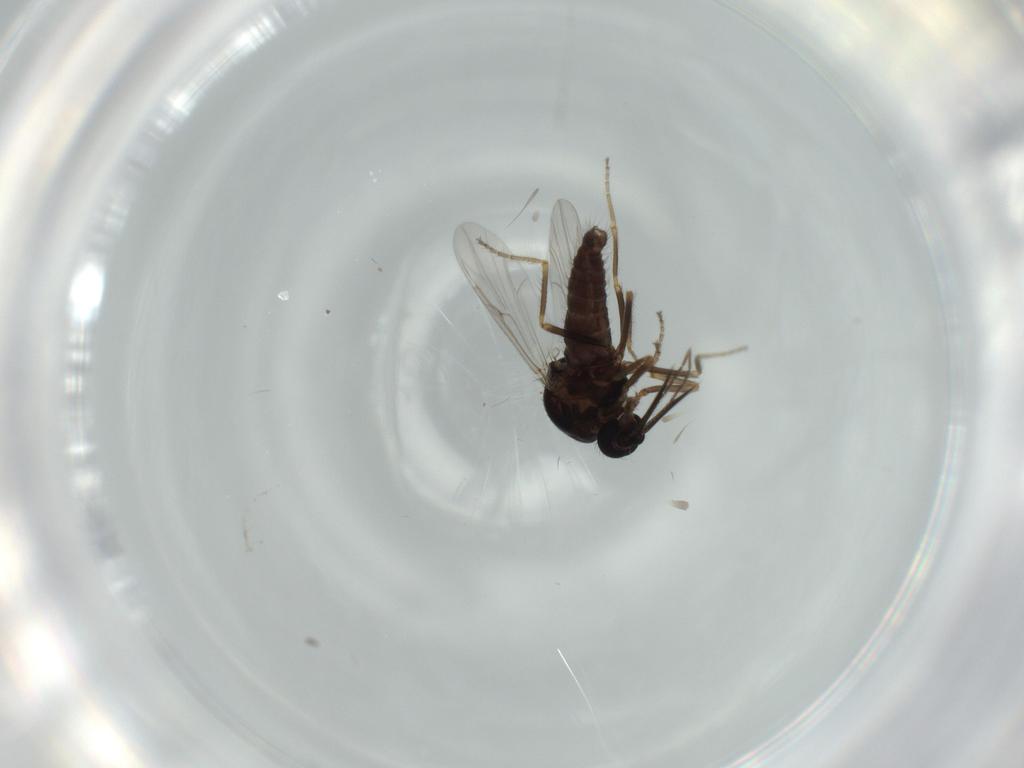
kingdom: Animalia
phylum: Arthropoda
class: Insecta
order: Diptera
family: Ceratopogonidae
